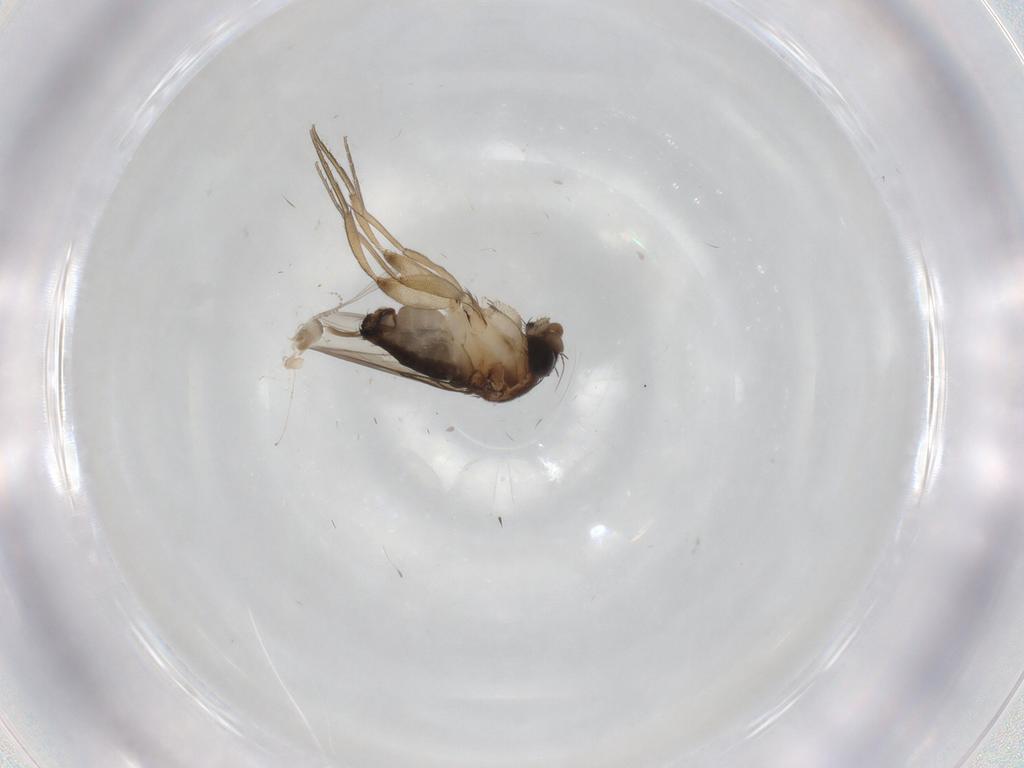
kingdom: Animalia
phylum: Arthropoda
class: Insecta
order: Diptera
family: Phoridae
